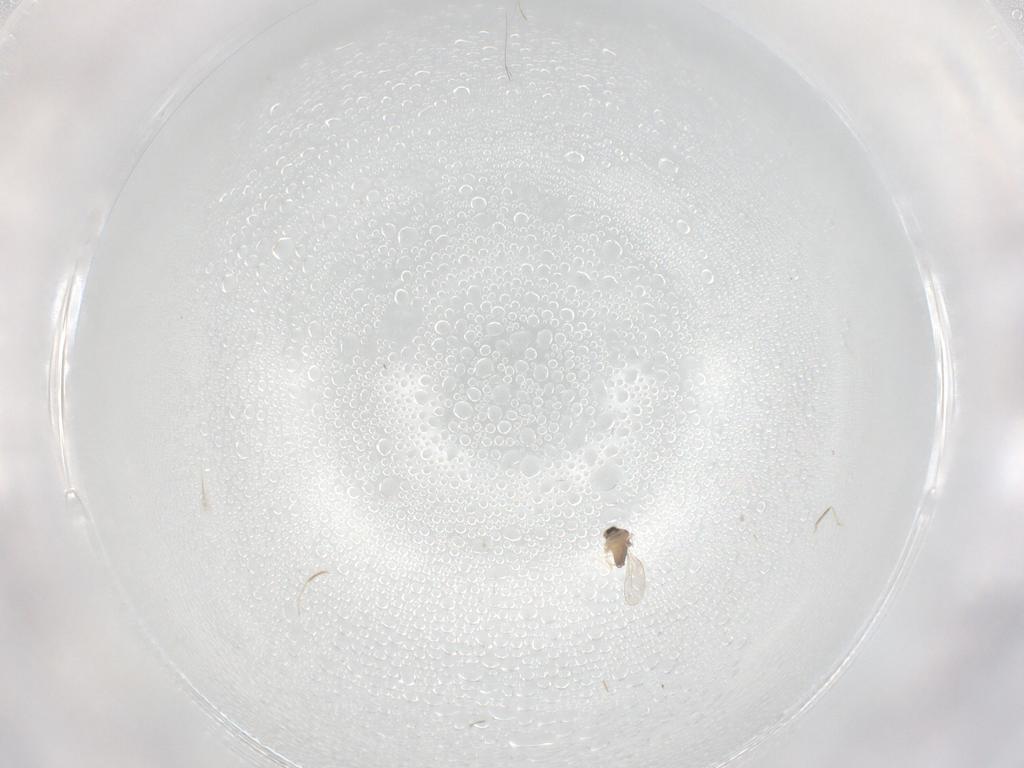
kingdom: Animalia
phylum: Arthropoda
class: Insecta
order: Diptera
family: Cecidomyiidae
